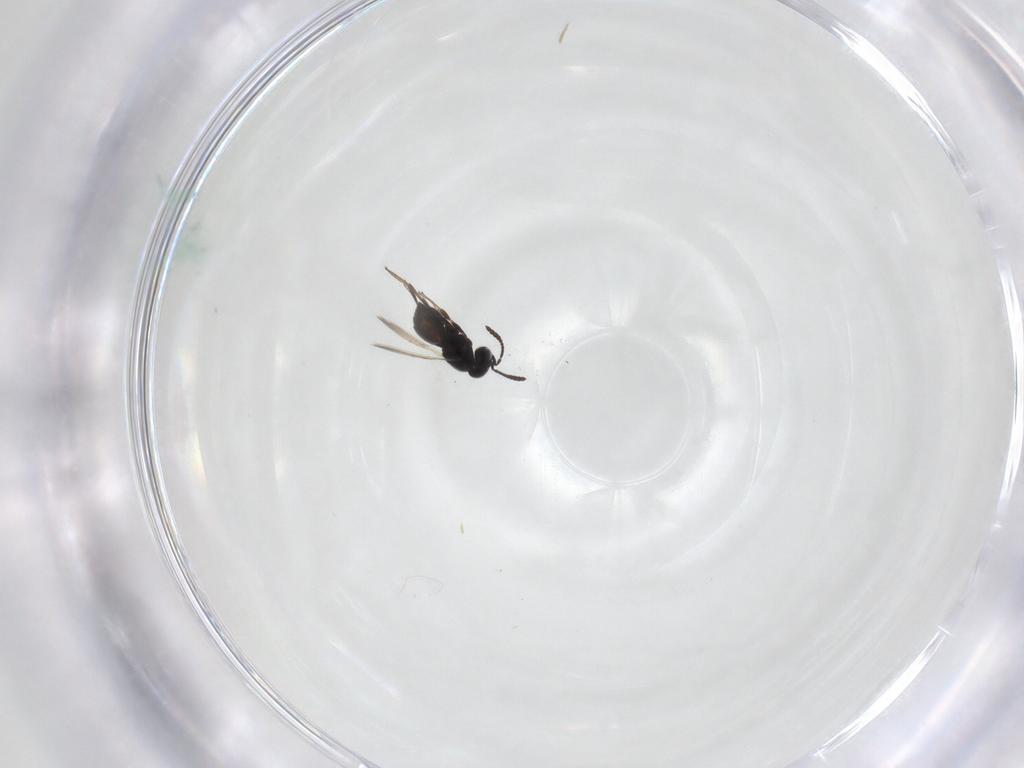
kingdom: Animalia
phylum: Arthropoda
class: Insecta
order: Hymenoptera
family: Scelionidae
